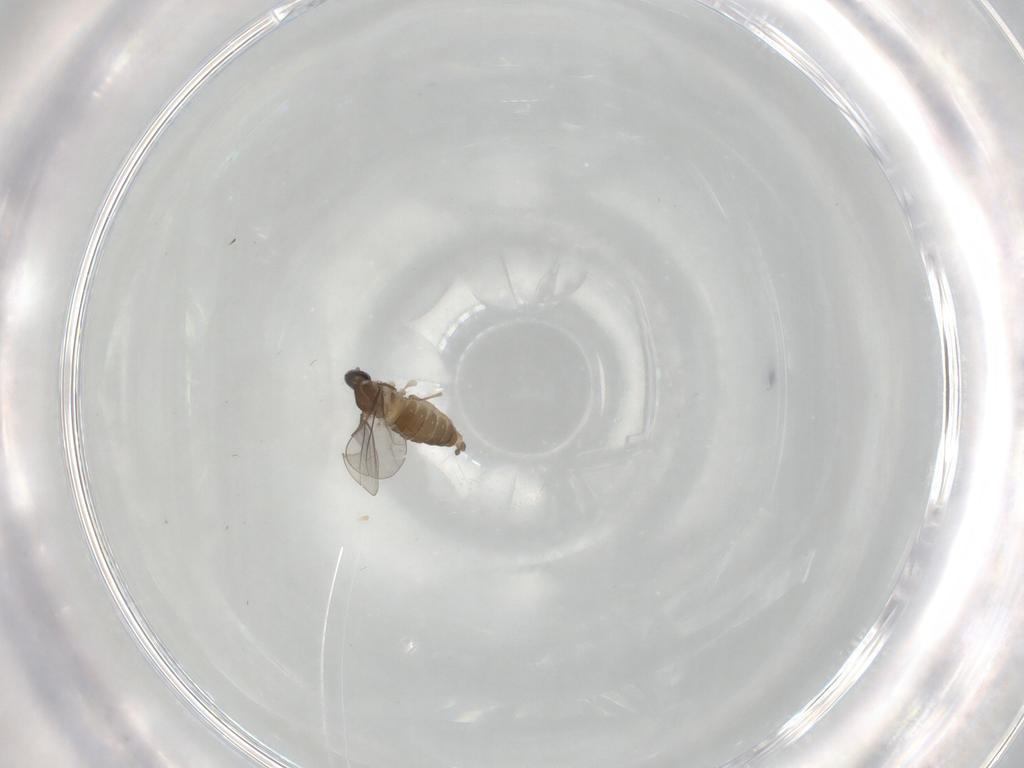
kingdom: Animalia
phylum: Arthropoda
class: Insecta
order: Diptera
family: Cecidomyiidae
